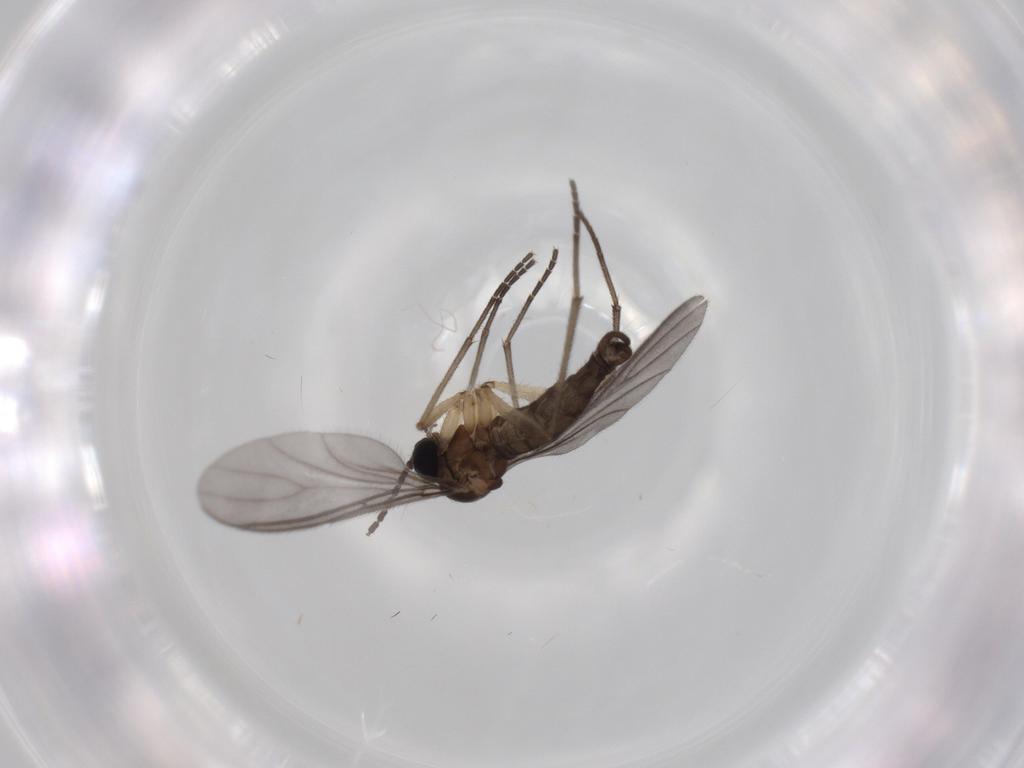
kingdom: Animalia
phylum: Arthropoda
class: Insecta
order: Diptera
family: Sciaridae
